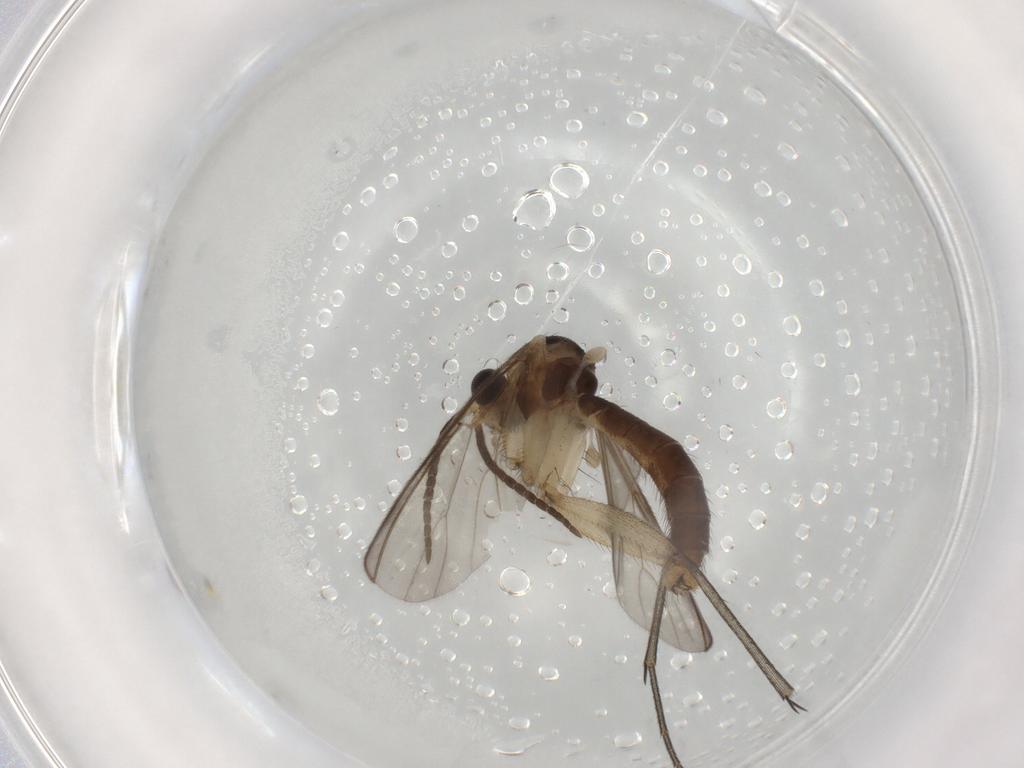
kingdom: Animalia
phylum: Arthropoda
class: Insecta
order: Diptera
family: Mycetophilidae
